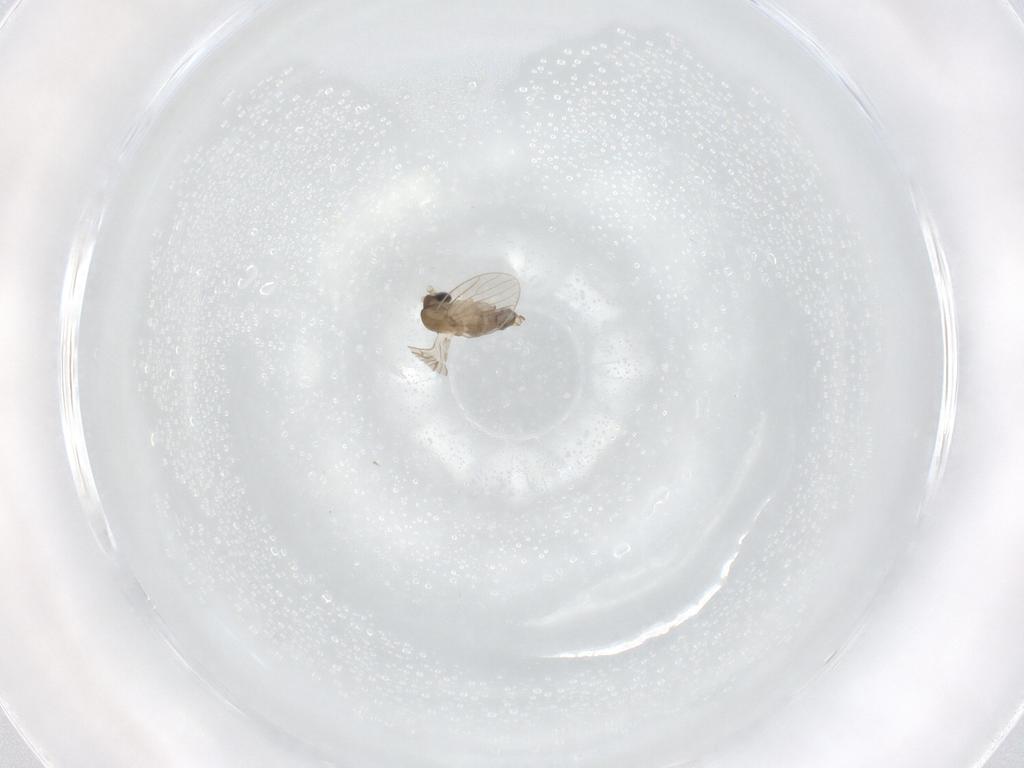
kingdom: Animalia
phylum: Arthropoda
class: Insecta
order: Diptera
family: Psychodidae
